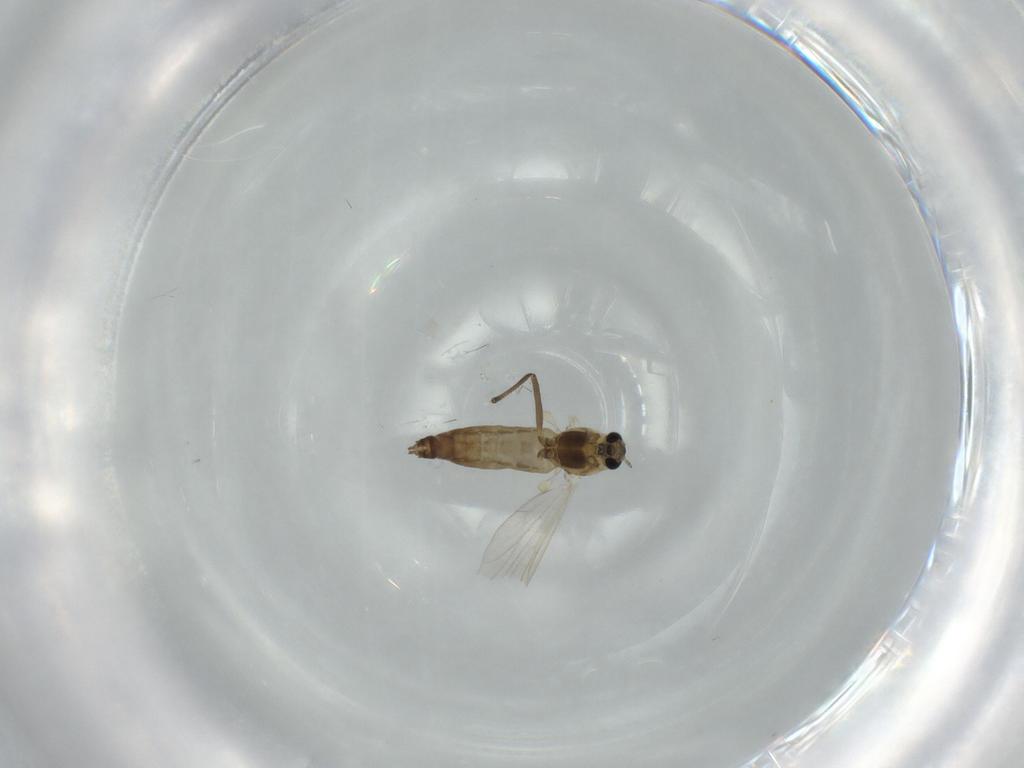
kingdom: Animalia
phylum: Arthropoda
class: Insecta
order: Diptera
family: Chironomidae
